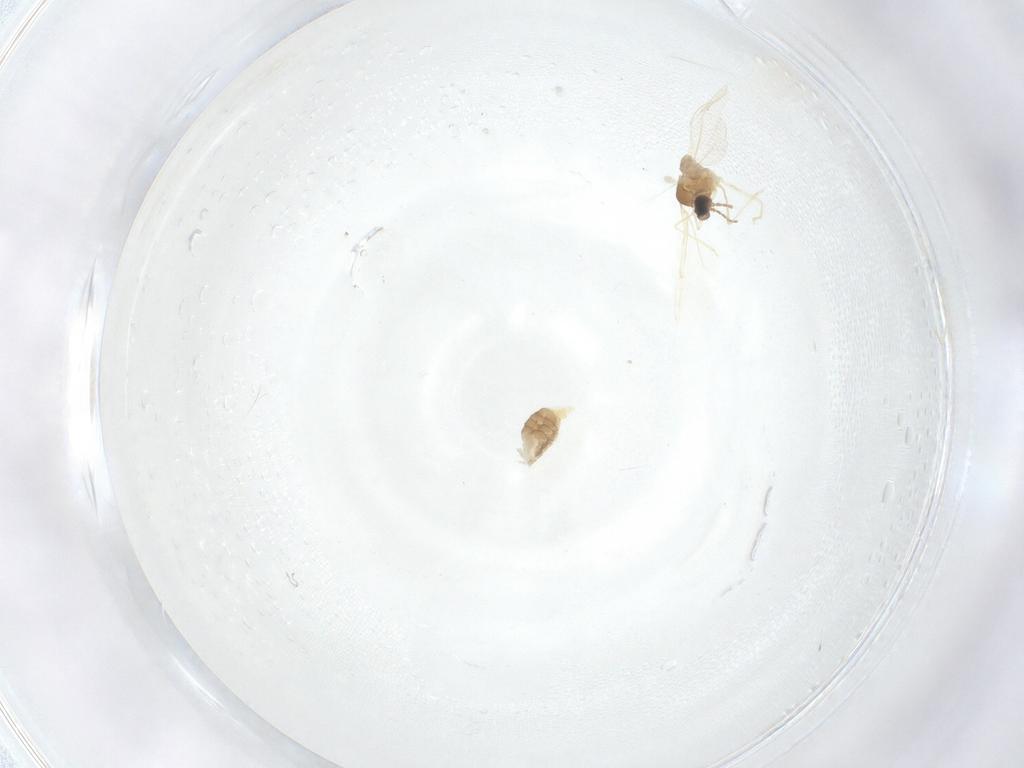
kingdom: Animalia
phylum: Arthropoda
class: Insecta
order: Diptera
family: Cecidomyiidae
